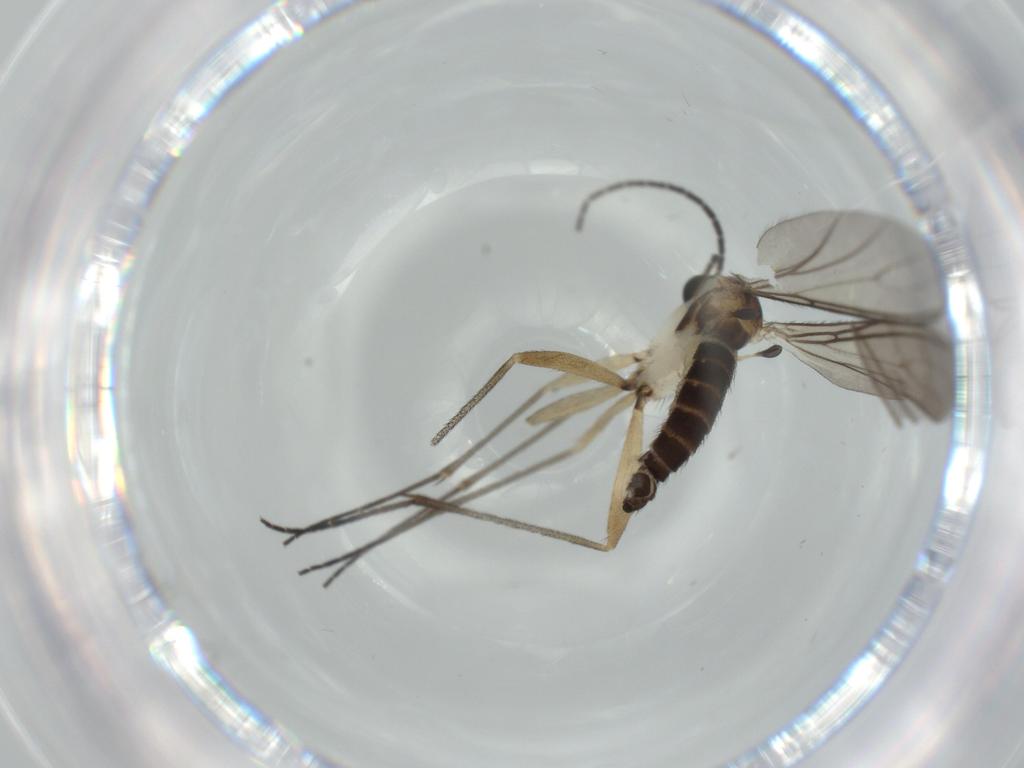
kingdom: Animalia
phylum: Arthropoda
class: Insecta
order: Diptera
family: Sciaridae
